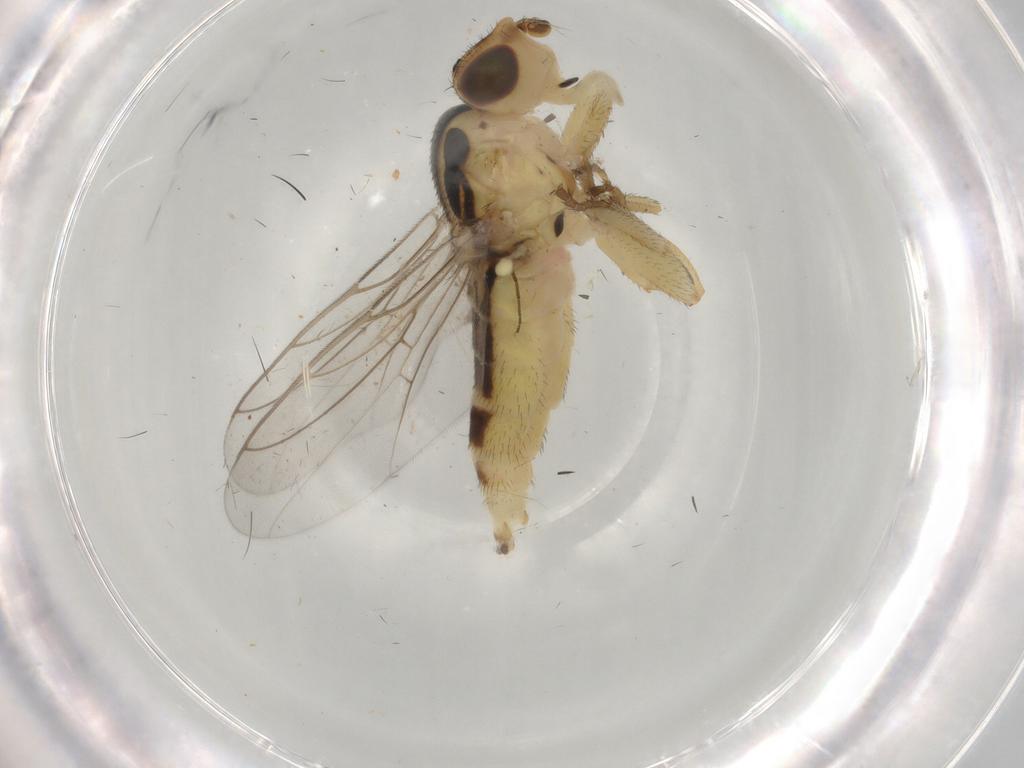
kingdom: Animalia
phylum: Arthropoda
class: Insecta
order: Diptera
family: Chloropidae
